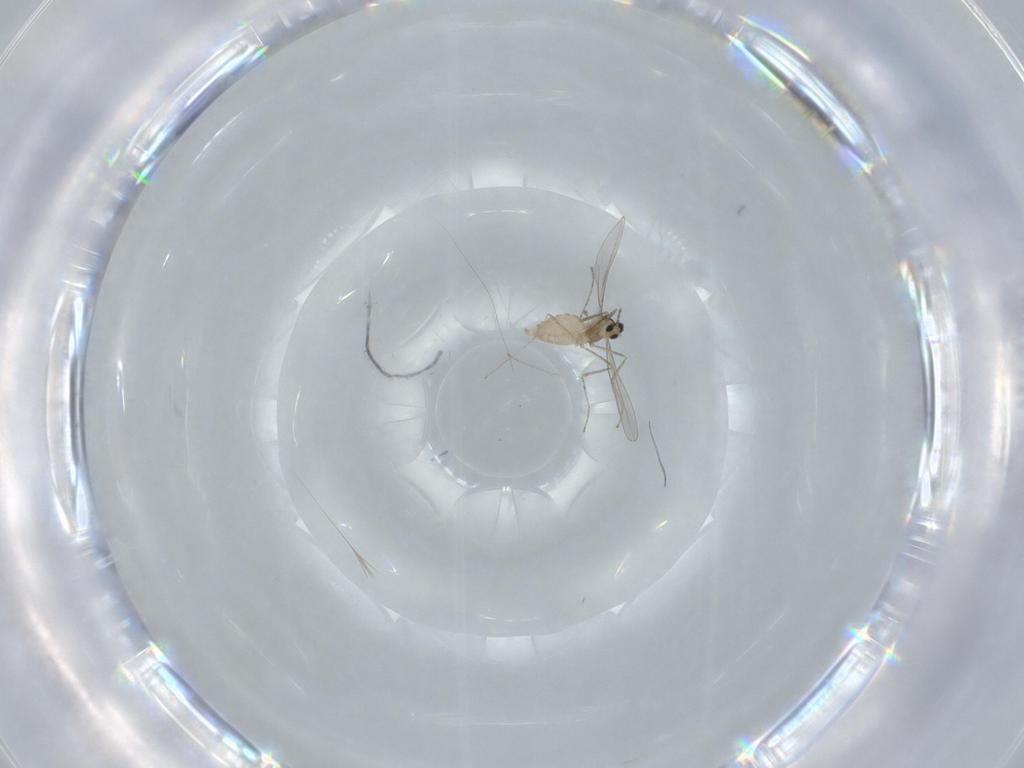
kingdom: Animalia
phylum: Arthropoda
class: Insecta
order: Diptera
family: Cecidomyiidae
